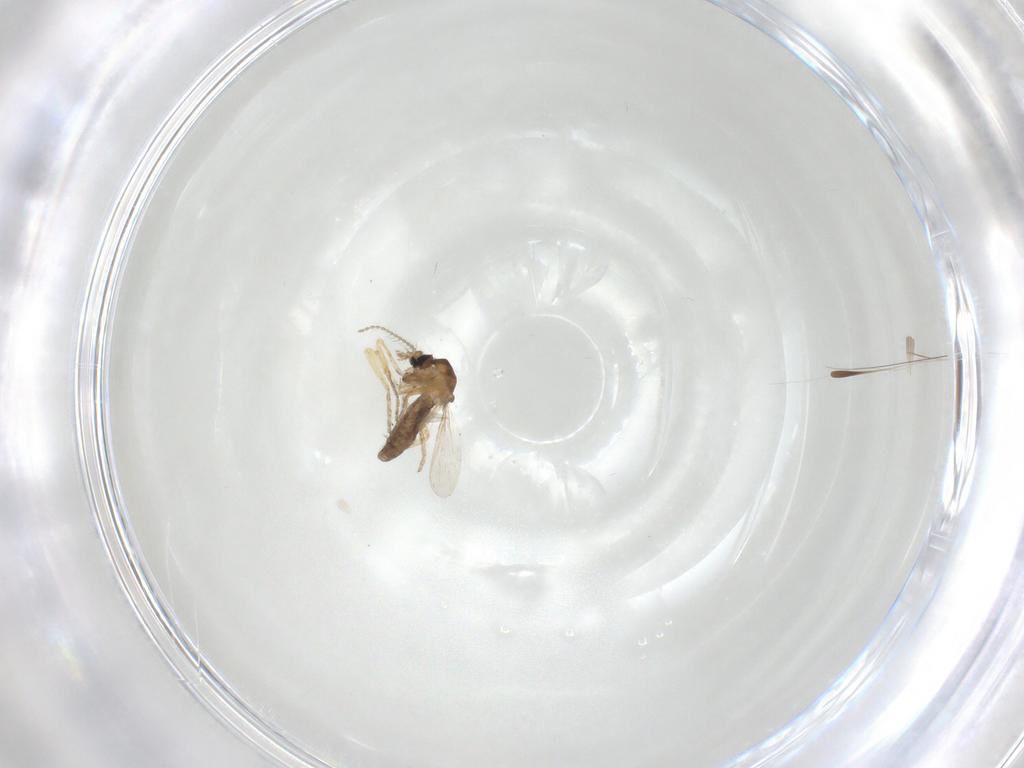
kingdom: Animalia
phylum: Arthropoda
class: Insecta
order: Diptera
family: Ceratopogonidae
